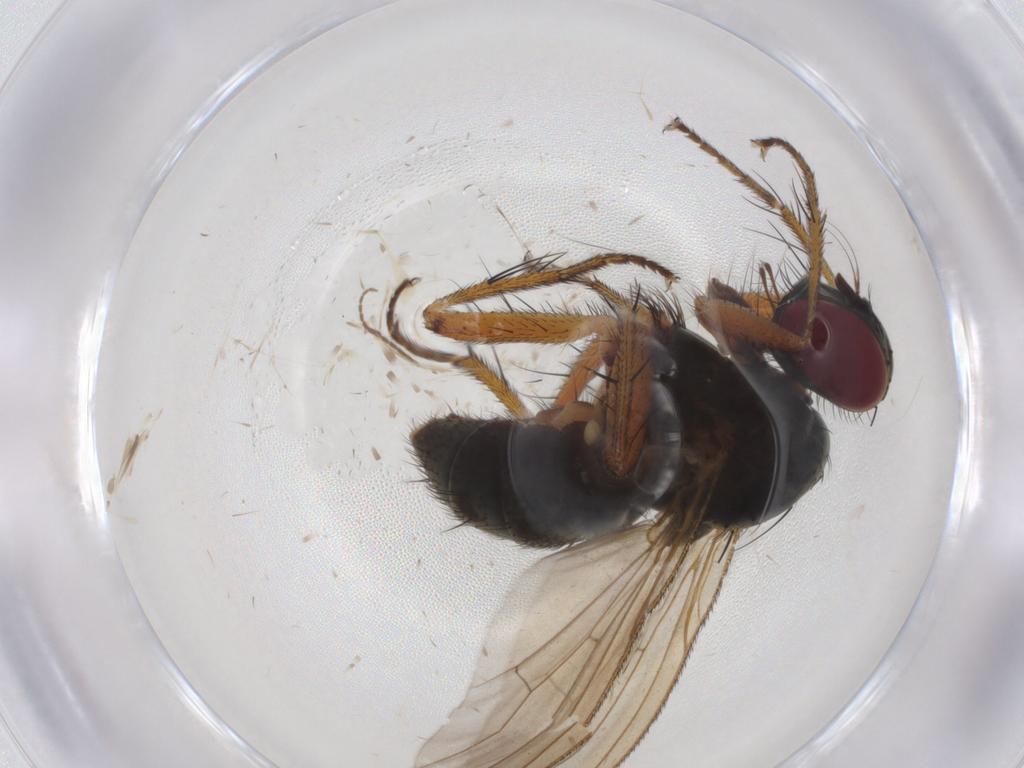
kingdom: Animalia
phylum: Arthropoda
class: Insecta
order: Diptera
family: Muscidae
